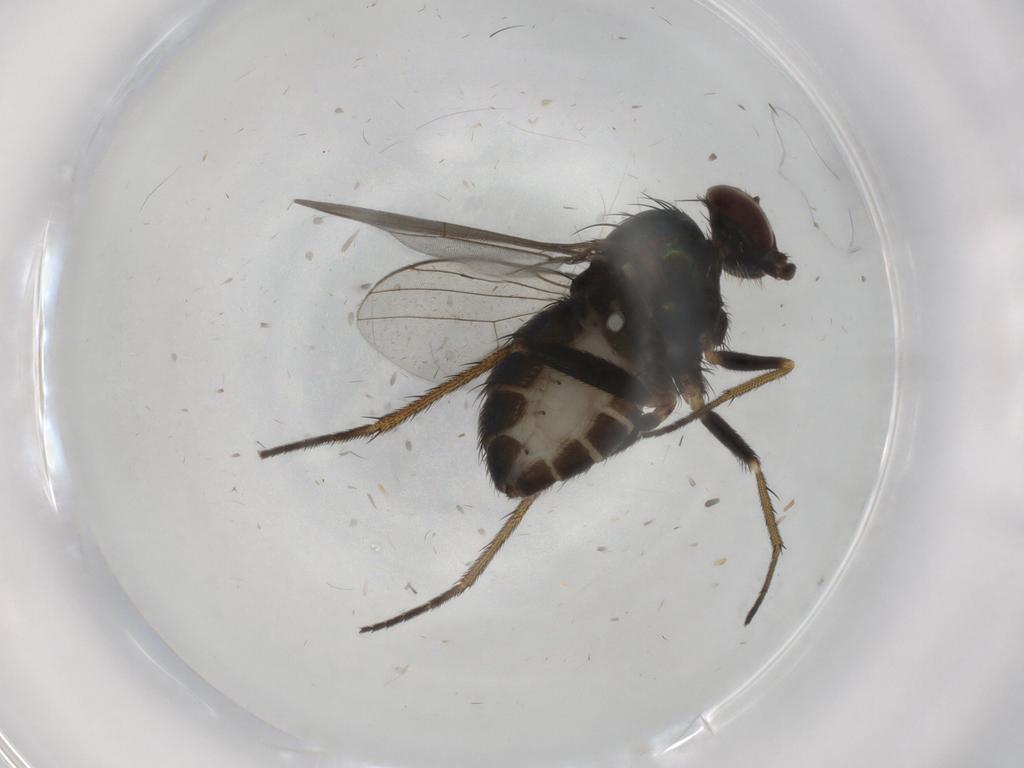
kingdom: Animalia
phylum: Arthropoda
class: Insecta
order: Diptera
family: Dolichopodidae
